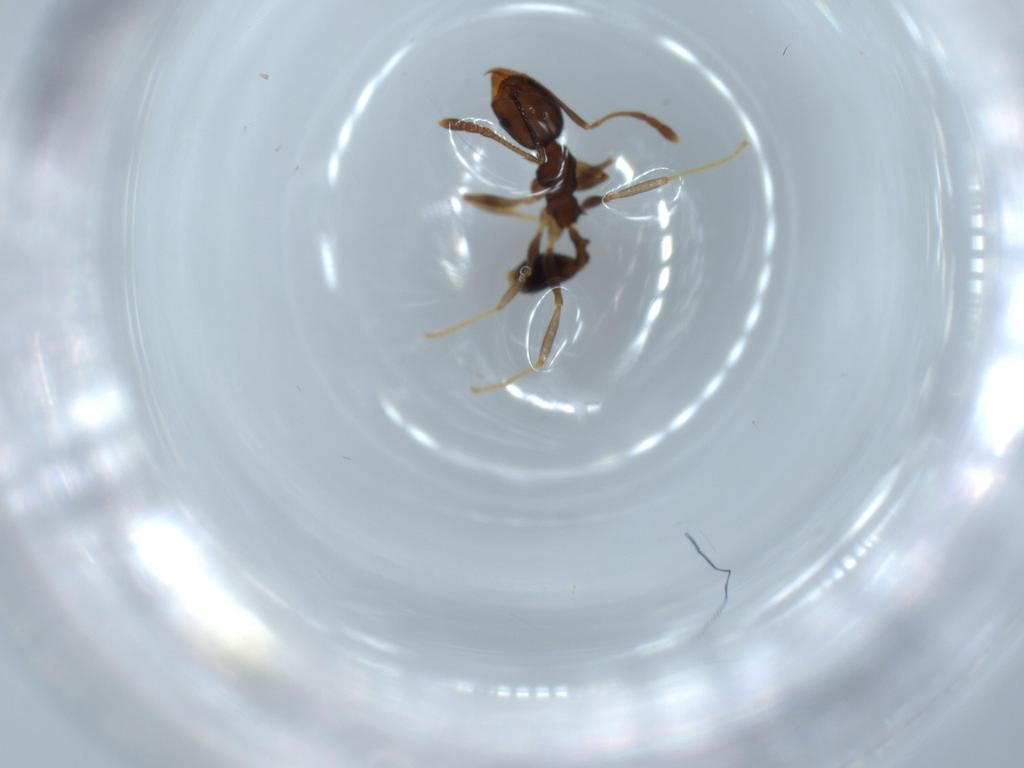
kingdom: Animalia
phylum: Arthropoda
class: Insecta
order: Hymenoptera
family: Formicidae
